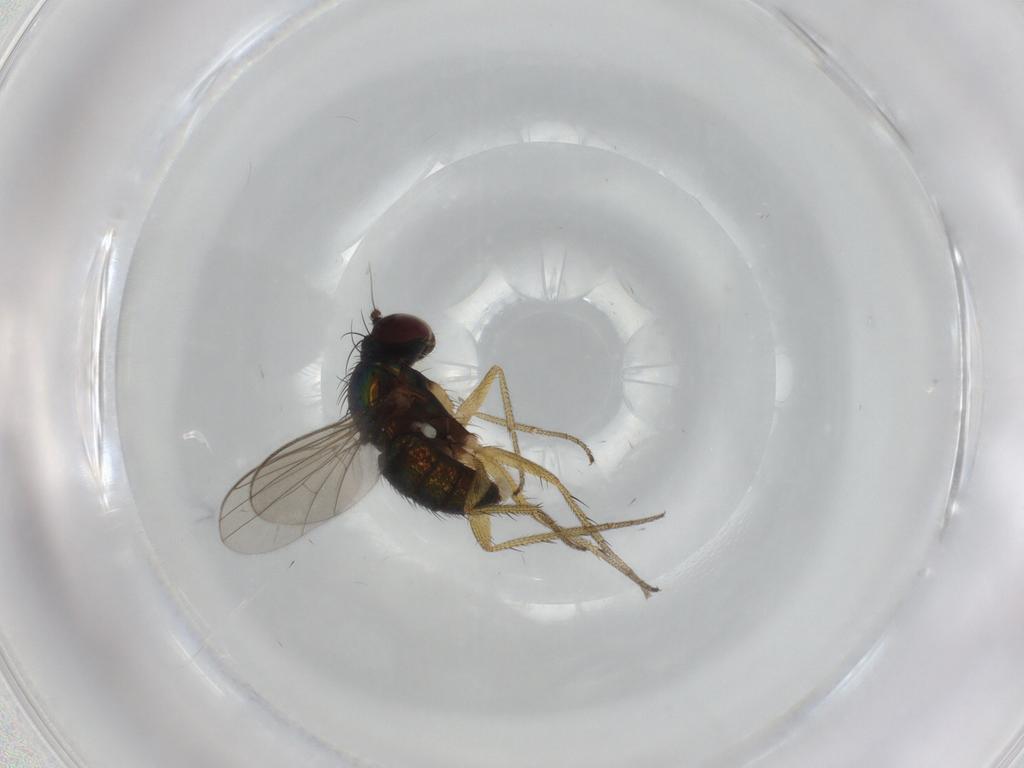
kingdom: Animalia
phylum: Arthropoda
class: Insecta
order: Diptera
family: Dolichopodidae
